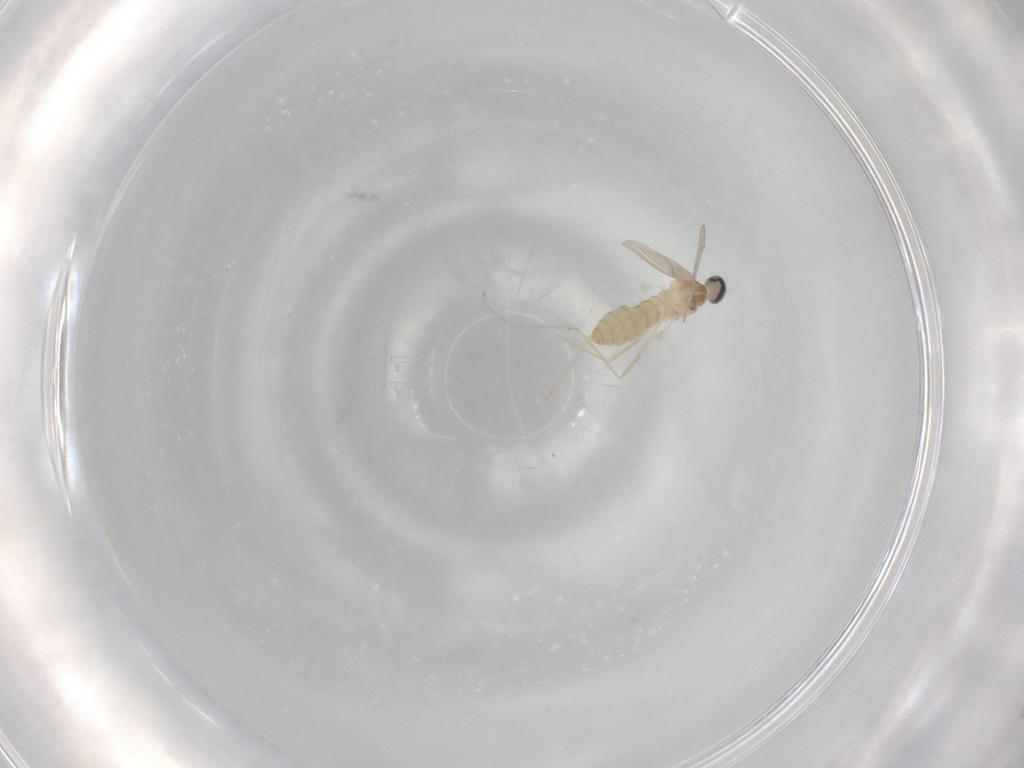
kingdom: Animalia
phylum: Arthropoda
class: Insecta
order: Diptera
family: Cecidomyiidae
